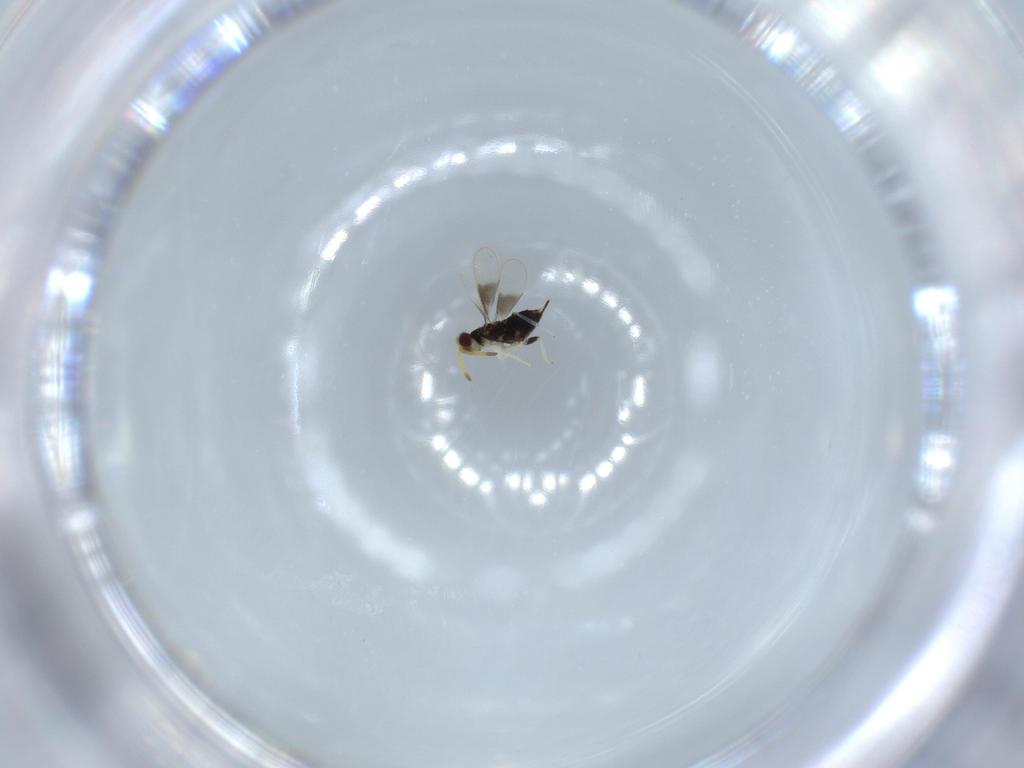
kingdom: Animalia
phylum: Arthropoda
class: Insecta
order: Hymenoptera
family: Aphelinidae
